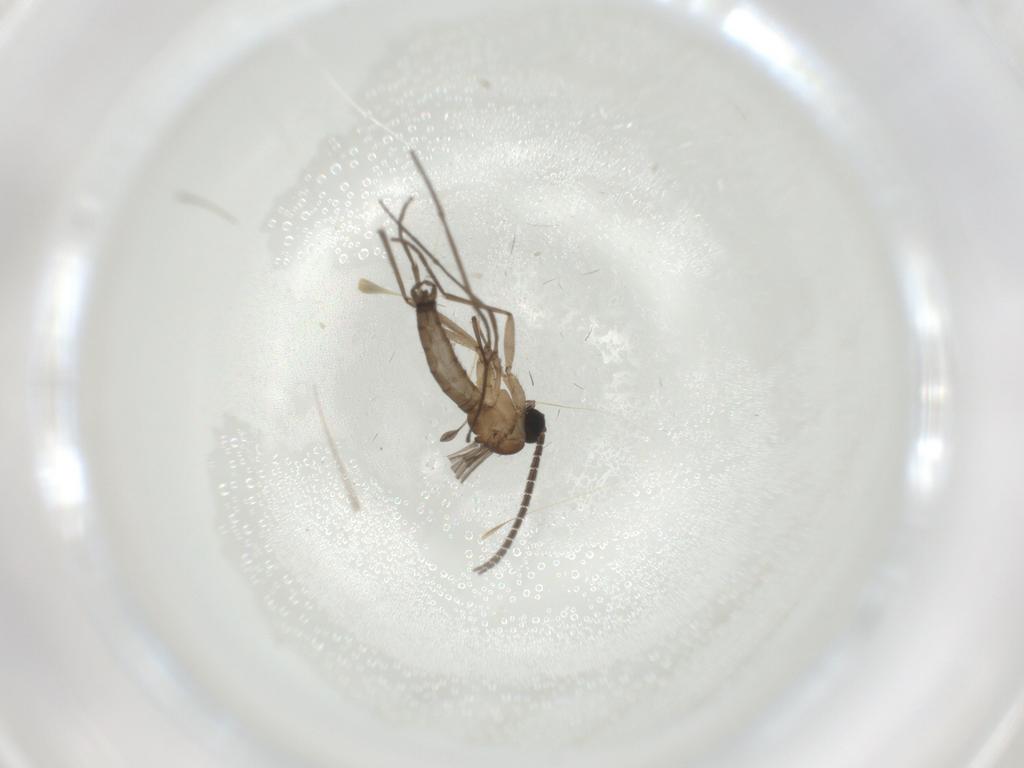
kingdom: Animalia
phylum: Arthropoda
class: Insecta
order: Diptera
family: Sciaridae
